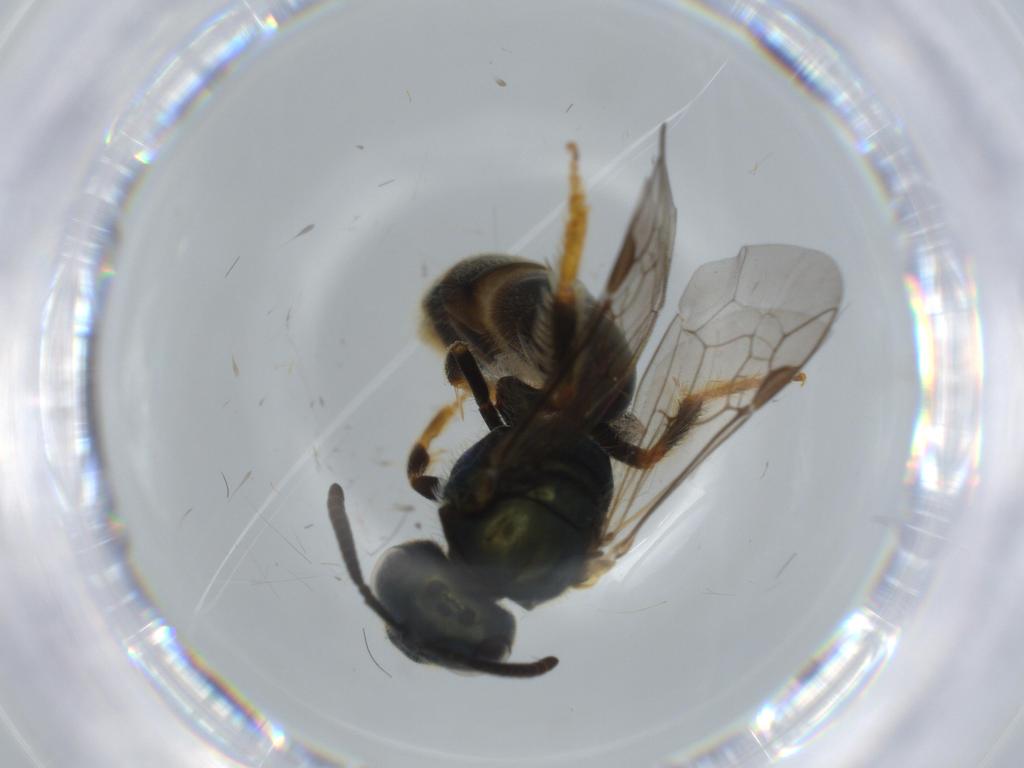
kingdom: Animalia
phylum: Arthropoda
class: Insecta
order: Hymenoptera
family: Halictidae
